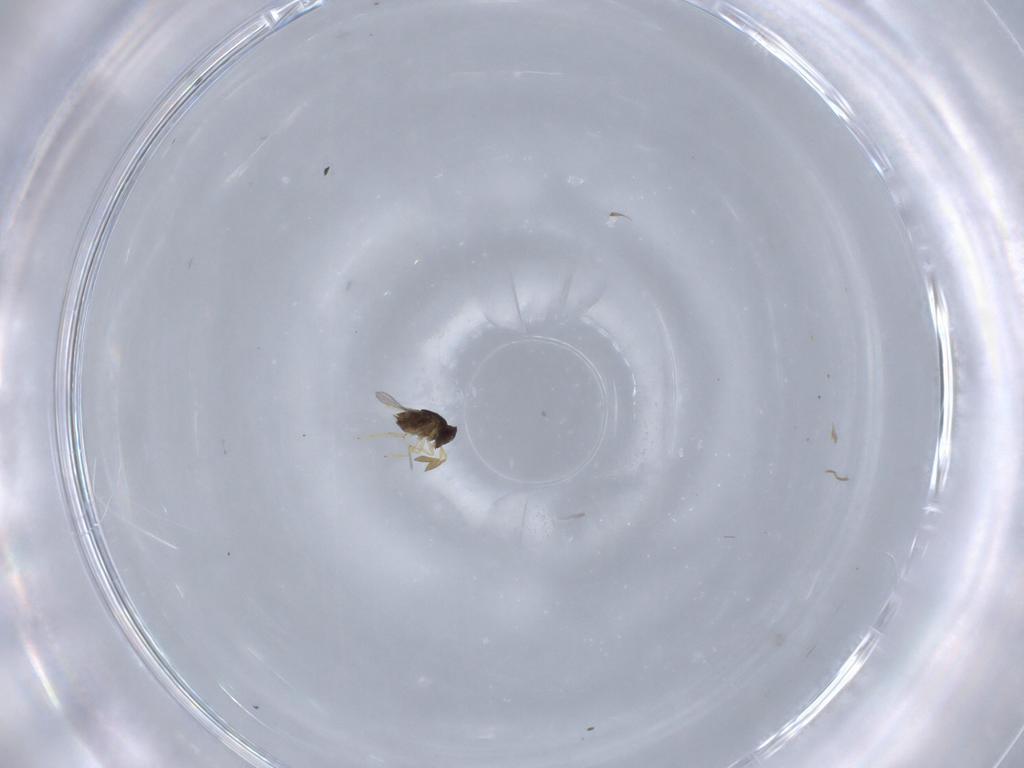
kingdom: Animalia
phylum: Arthropoda
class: Insecta
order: Hymenoptera
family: Encyrtidae
